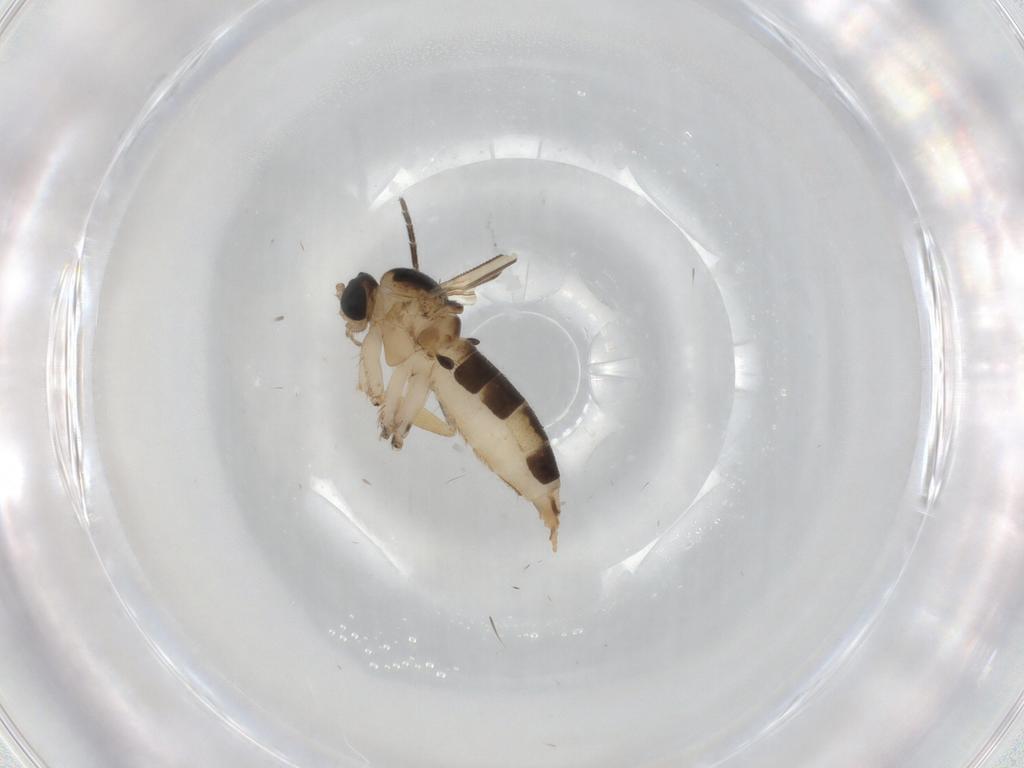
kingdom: Animalia
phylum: Arthropoda
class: Insecta
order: Diptera
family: Sciaridae
